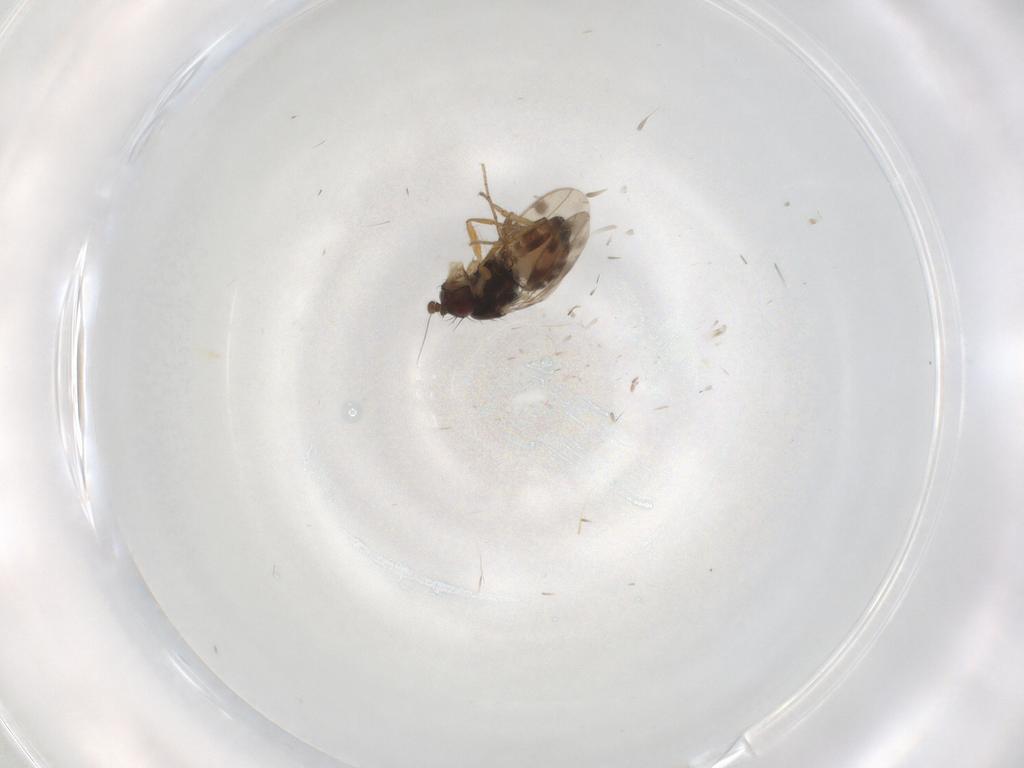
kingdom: Animalia
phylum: Arthropoda
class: Insecta
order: Diptera
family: Sphaeroceridae
